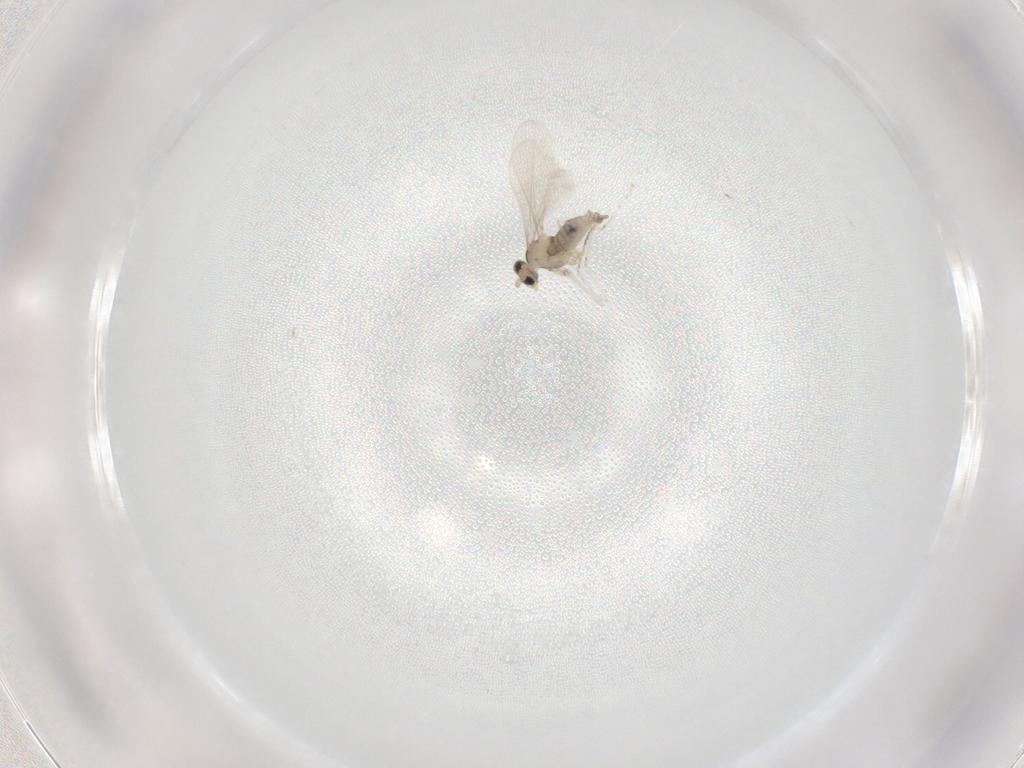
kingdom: Animalia
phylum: Arthropoda
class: Insecta
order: Diptera
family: Cecidomyiidae
